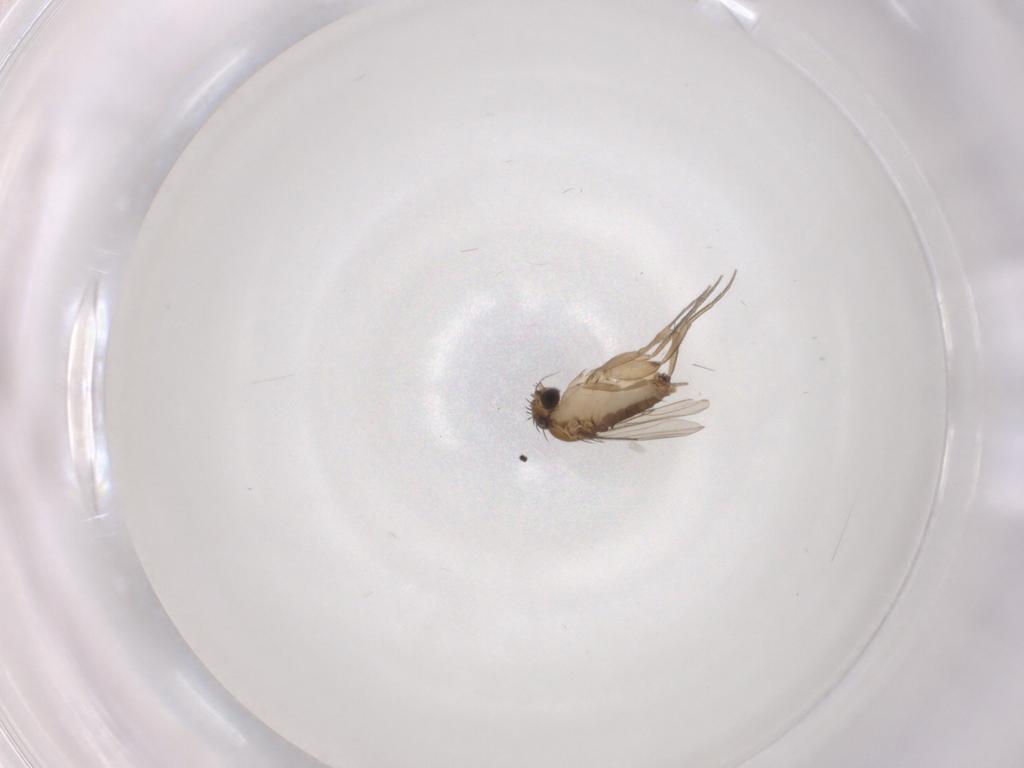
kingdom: Animalia
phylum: Arthropoda
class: Insecta
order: Diptera
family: Phoridae
